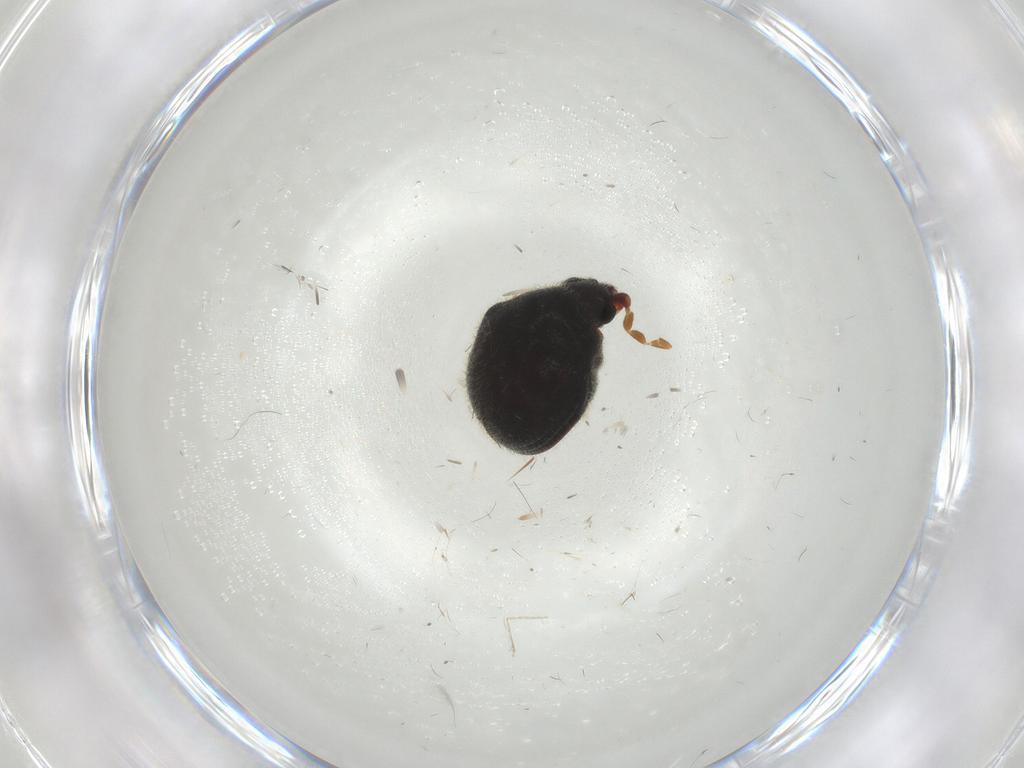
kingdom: Animalia
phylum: Arthropoda
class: Insecta
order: Coleoptera
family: Ptinidae
